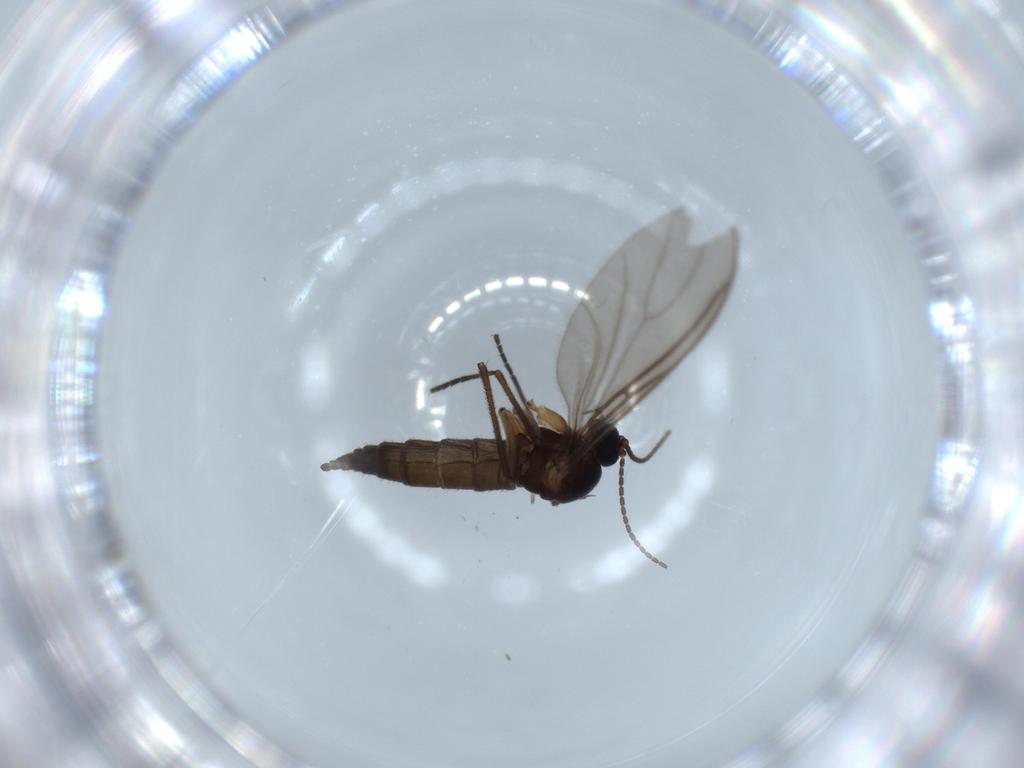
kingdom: Animalia
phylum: Arthropoda
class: Insecta
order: Diptera
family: Sciaridae
